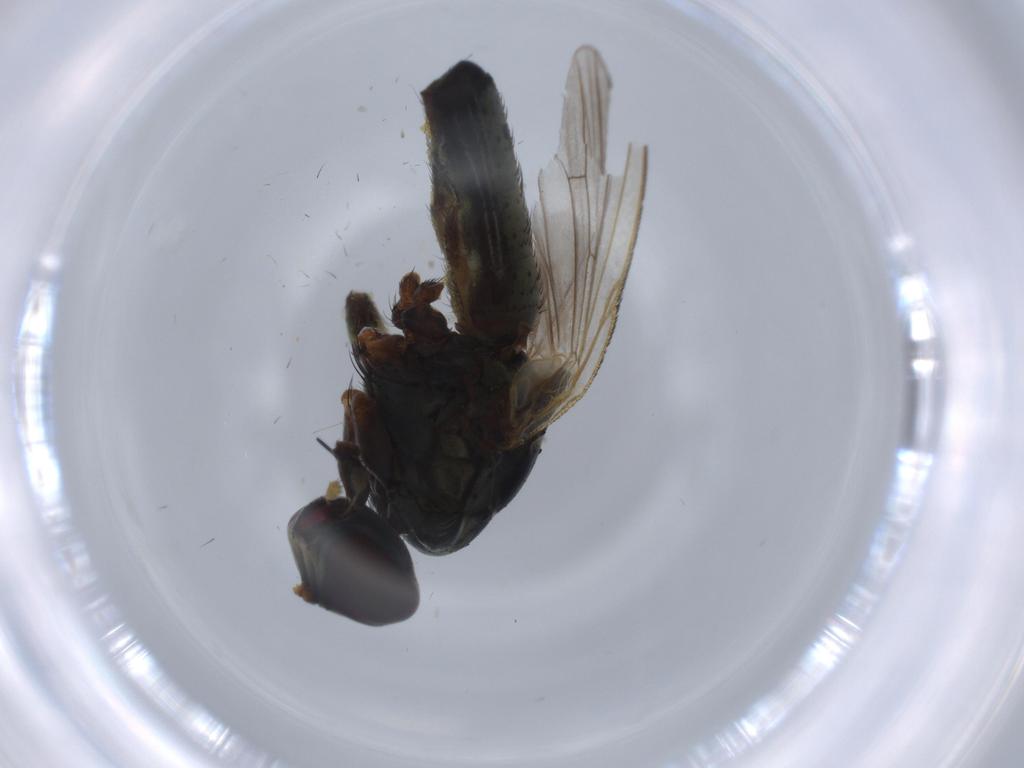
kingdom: Animalia
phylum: Arthropoda
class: Insecta
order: Diptera
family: Muscidae
